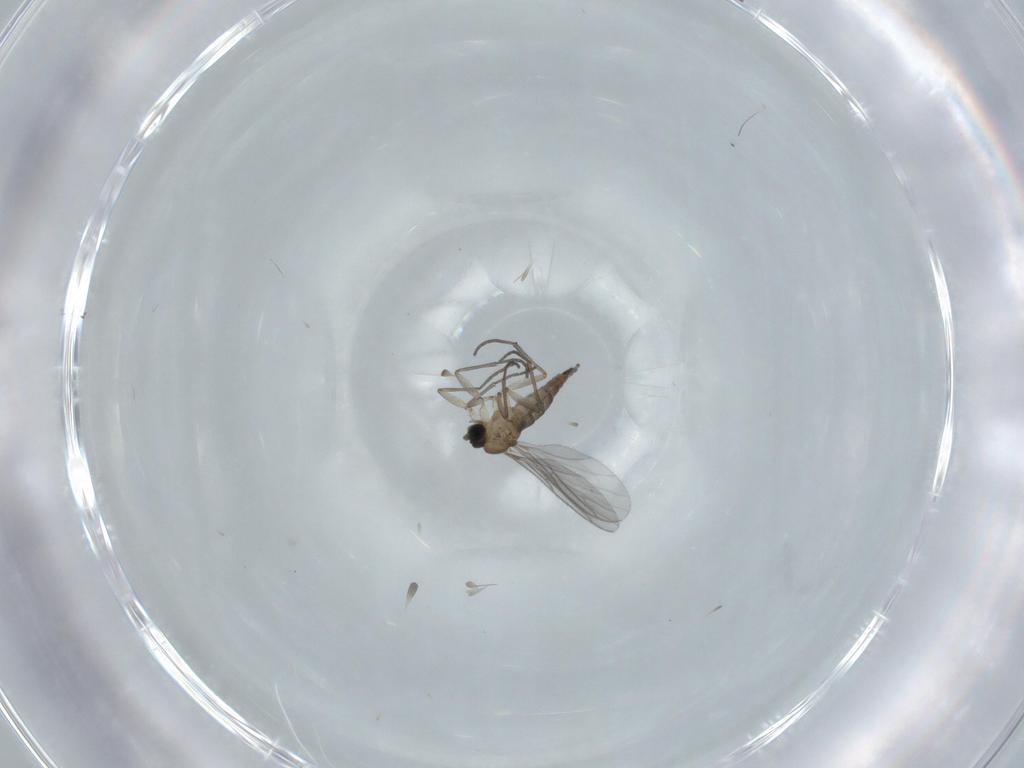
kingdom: Animalia
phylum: Arthropoda
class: Insecta
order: Diptera
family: Sciaridae
